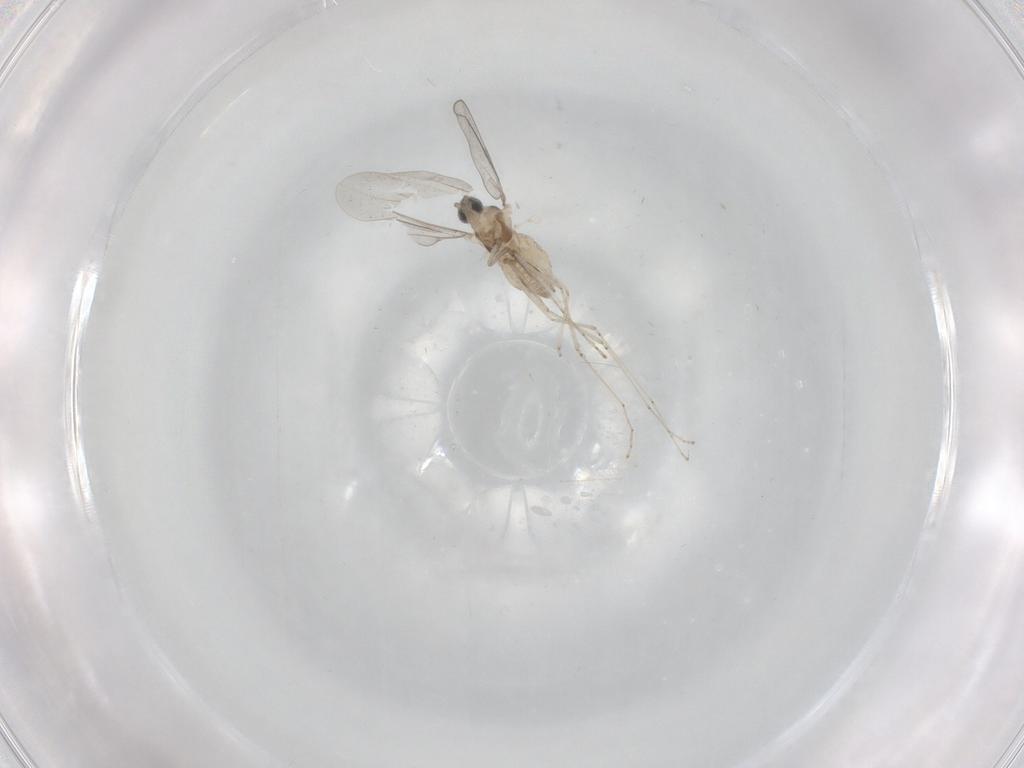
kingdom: Animalia
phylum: Arthropoda
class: Insecta
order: Diptera
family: Cecidomyiidae
